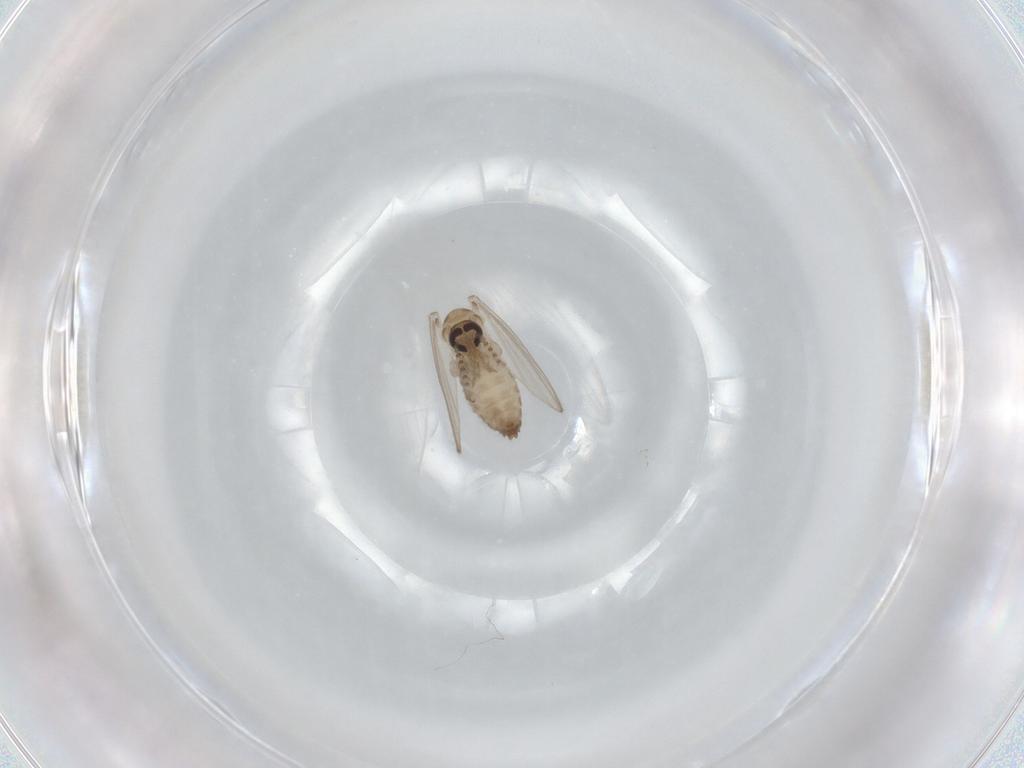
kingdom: Animalia
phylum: Arthropoda
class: Insecta
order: Diptera
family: Psychodidae
